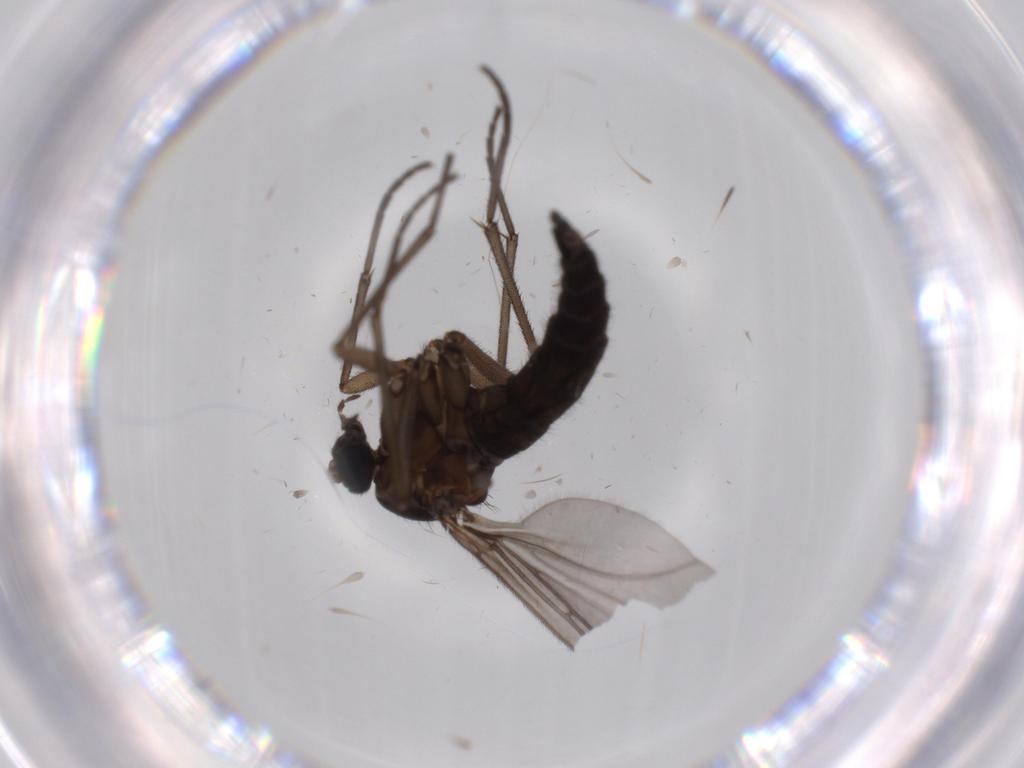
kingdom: Animalia
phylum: Arthropoda
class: Insecta
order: Diptera
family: Sciaridae
